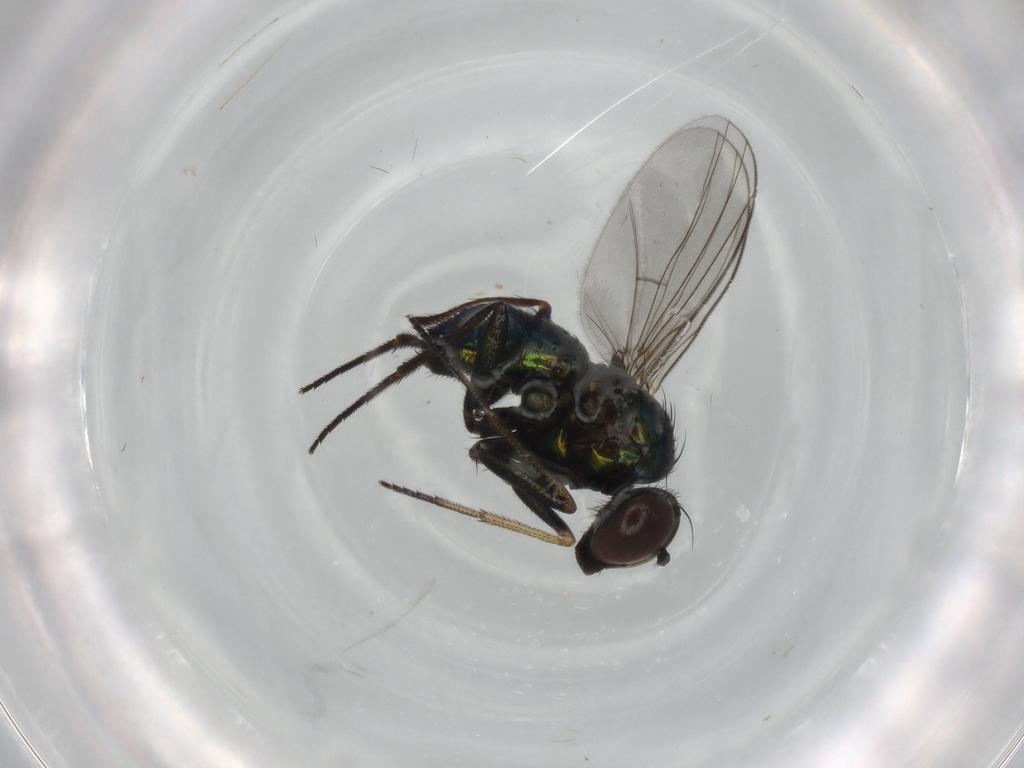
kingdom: Animalia
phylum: Arthropoda
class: Insecta
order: Diptera
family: Dolichopodidae
